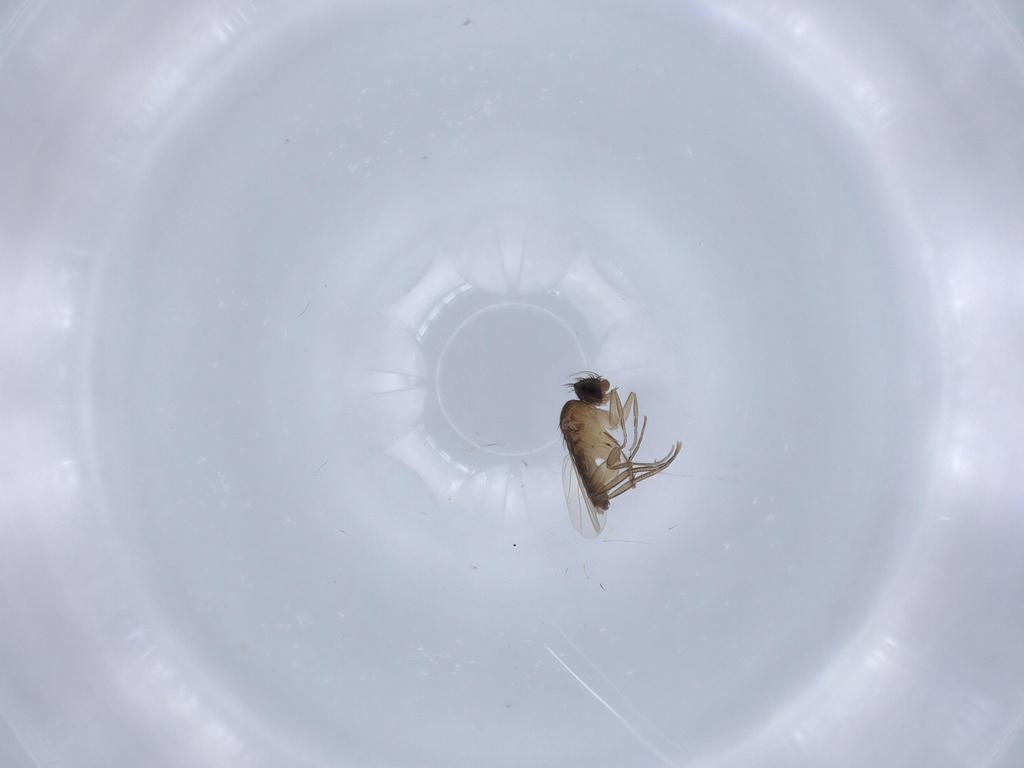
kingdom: Animalia
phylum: Arthropoda
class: Insecta
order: Diptera
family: Phoridae
